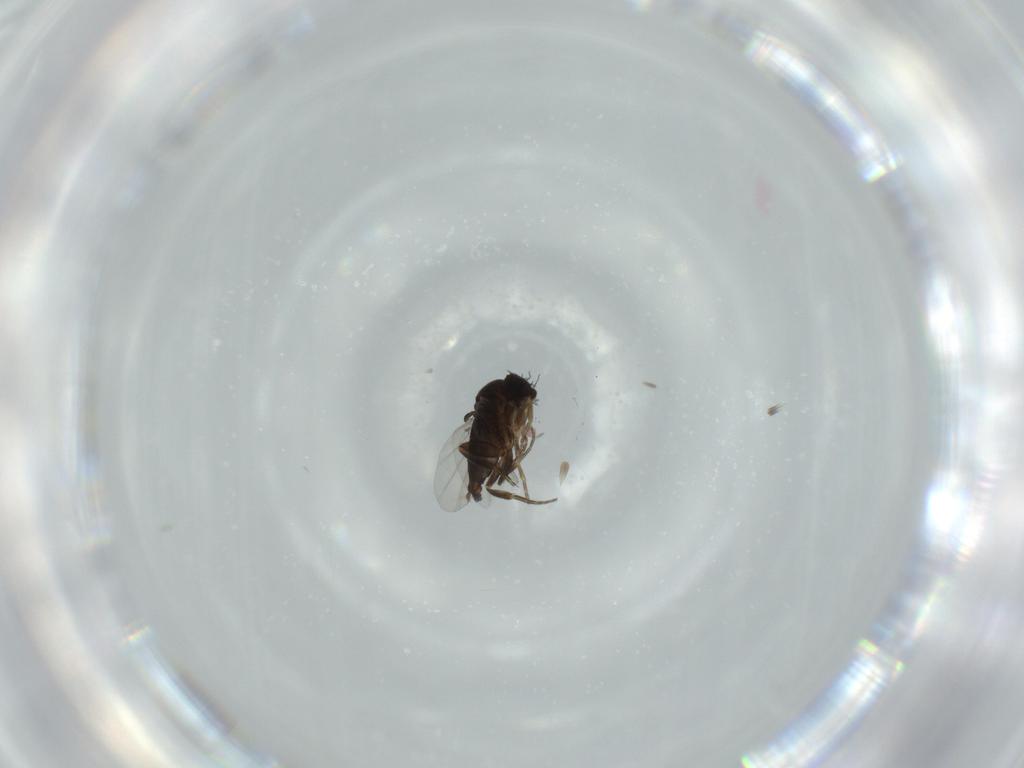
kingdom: Animalia
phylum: Arthropoda
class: Insecta
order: Diptera
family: Phoridae
